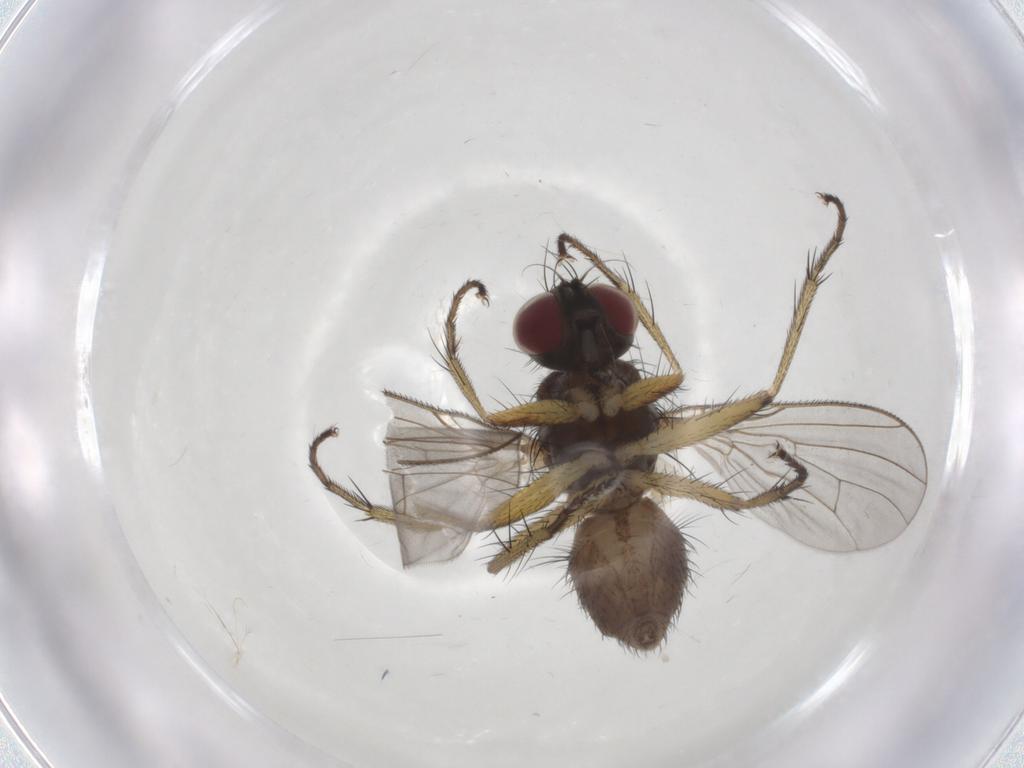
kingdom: Animalia
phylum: Arthropoda
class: Insecta
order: Diptera
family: Muscidae
